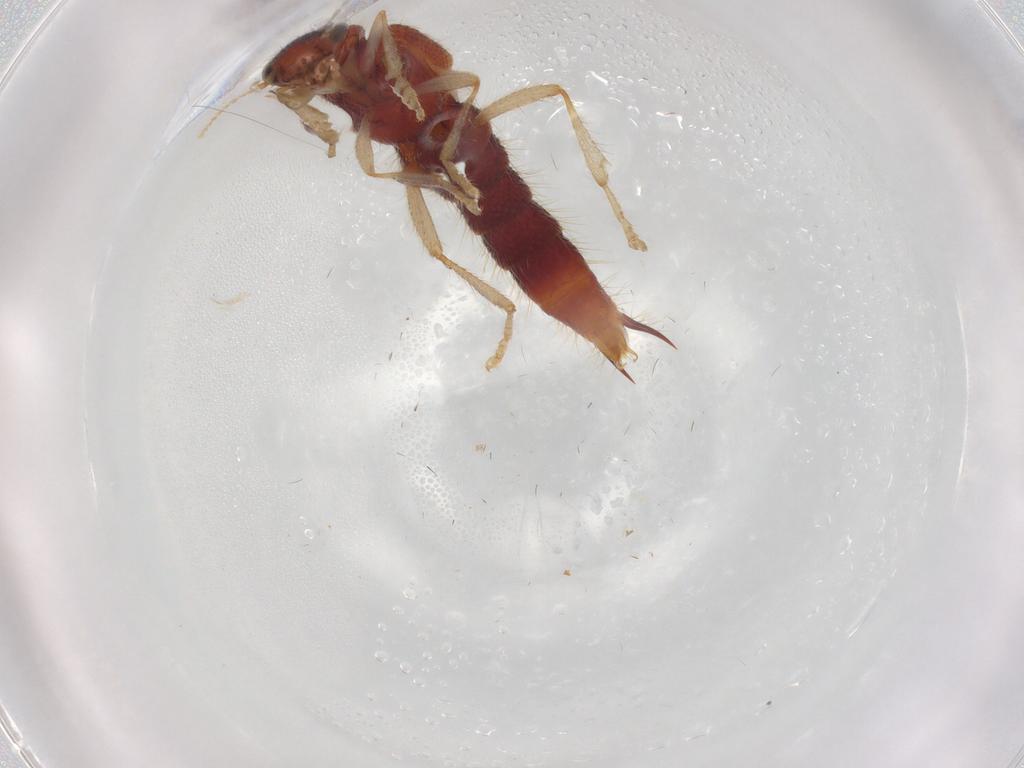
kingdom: Animalia
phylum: Arthropoda
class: Insecta
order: Coleoptera
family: Staphylinidae
